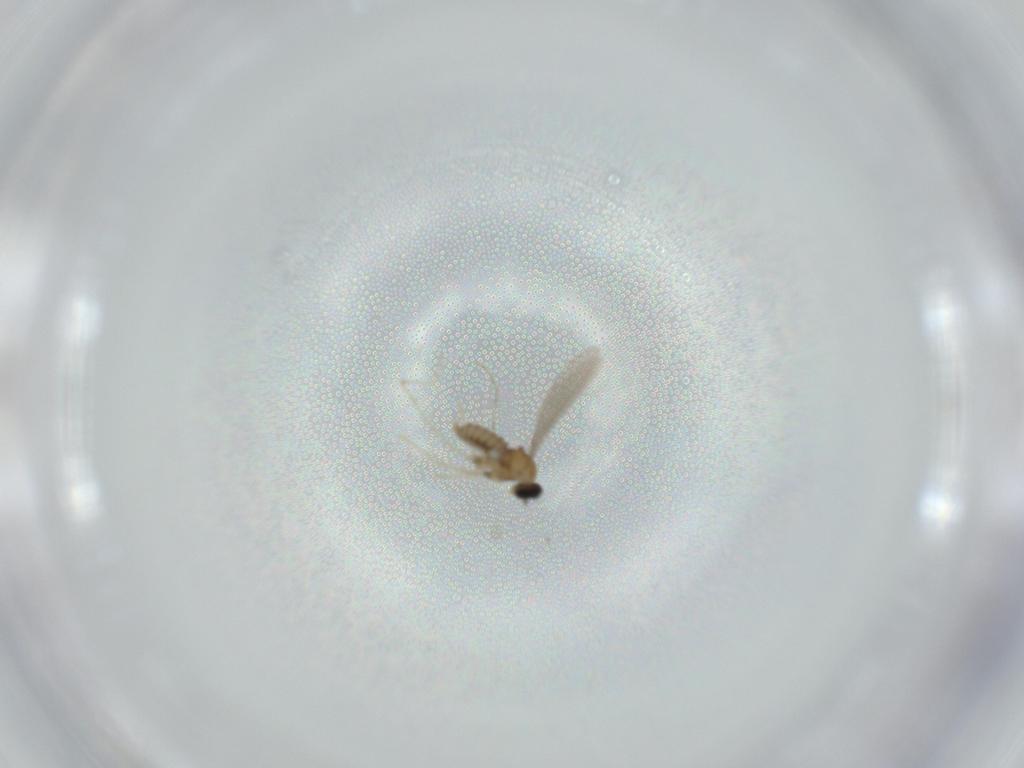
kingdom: Animalia
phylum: Arthropoda
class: Insecta
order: Diptera
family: Cecidomyiidae
